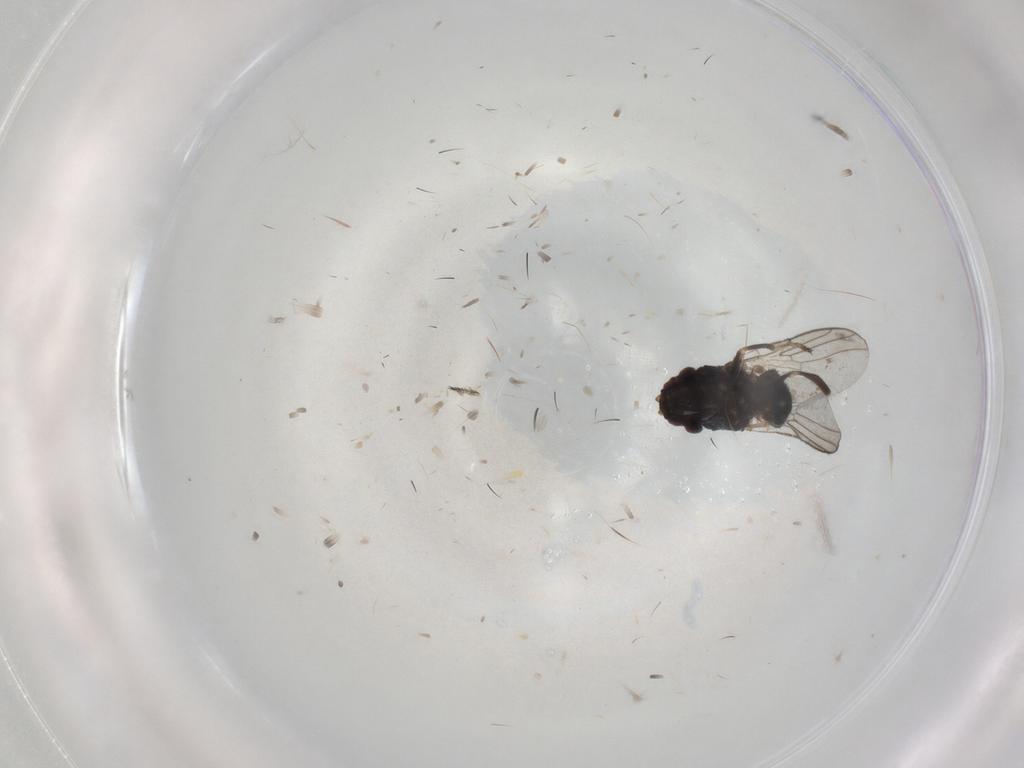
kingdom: Animalia
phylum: Arthropoda
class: Insecta
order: Diptera
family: Chloropidae
